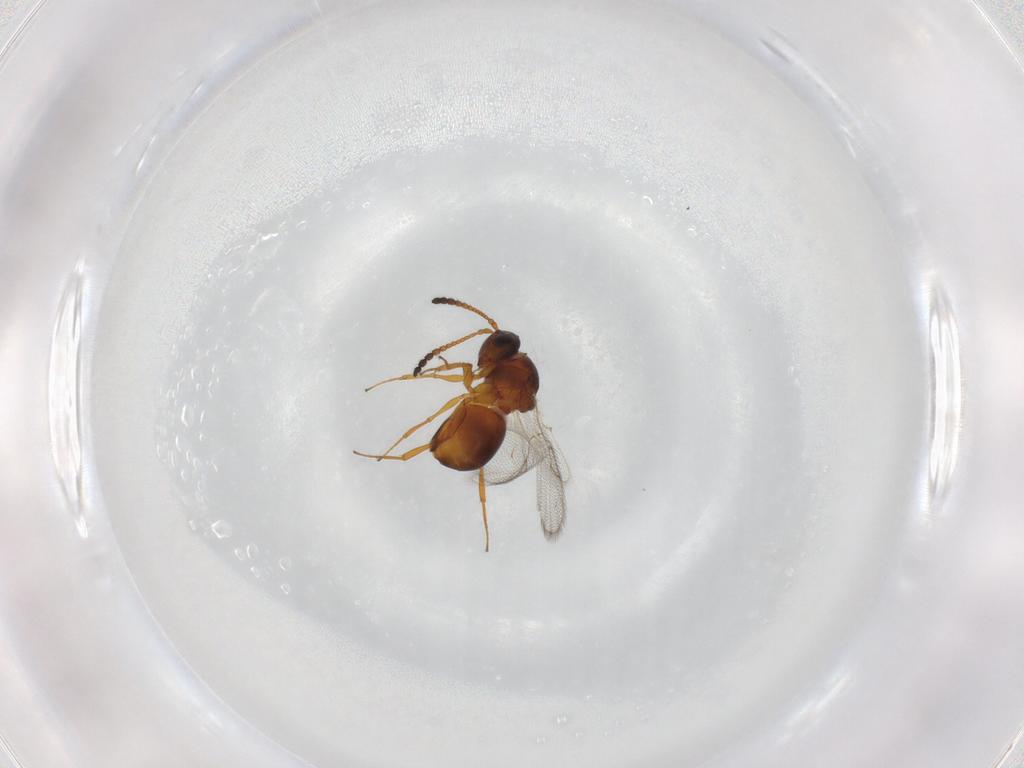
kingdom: Animalia
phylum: Arthropoda
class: Insecta
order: Hymenoptera
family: Figitidae
